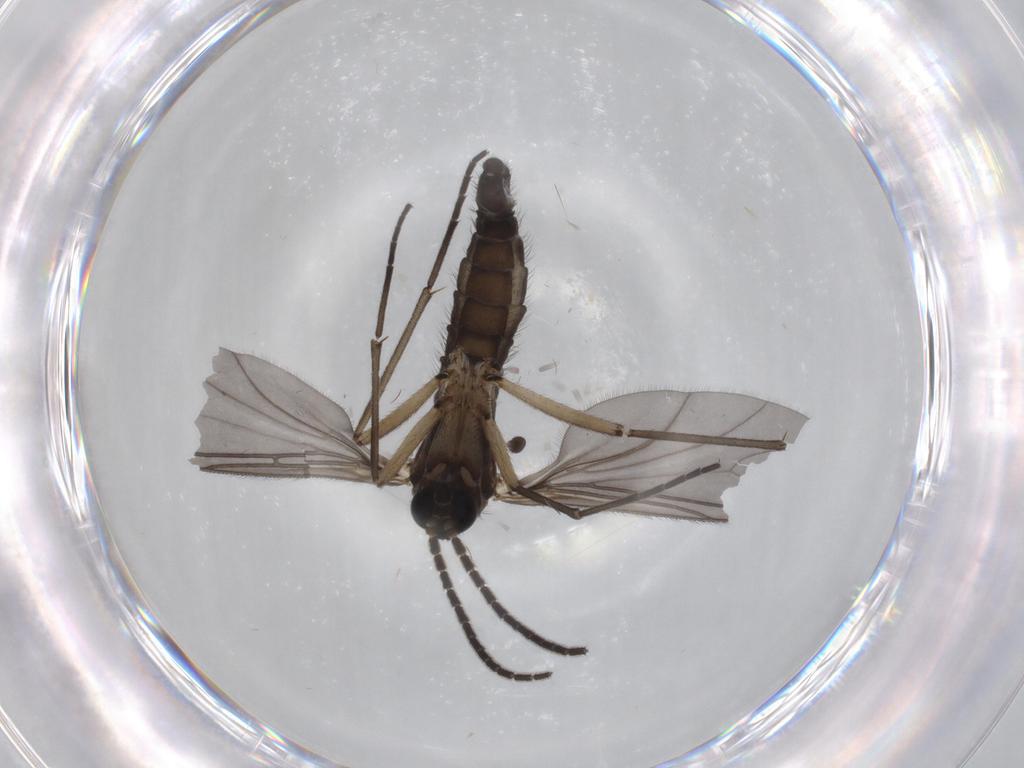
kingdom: Animalia
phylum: Arthropoda
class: Insecta
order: Diptera
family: Sciaridae
